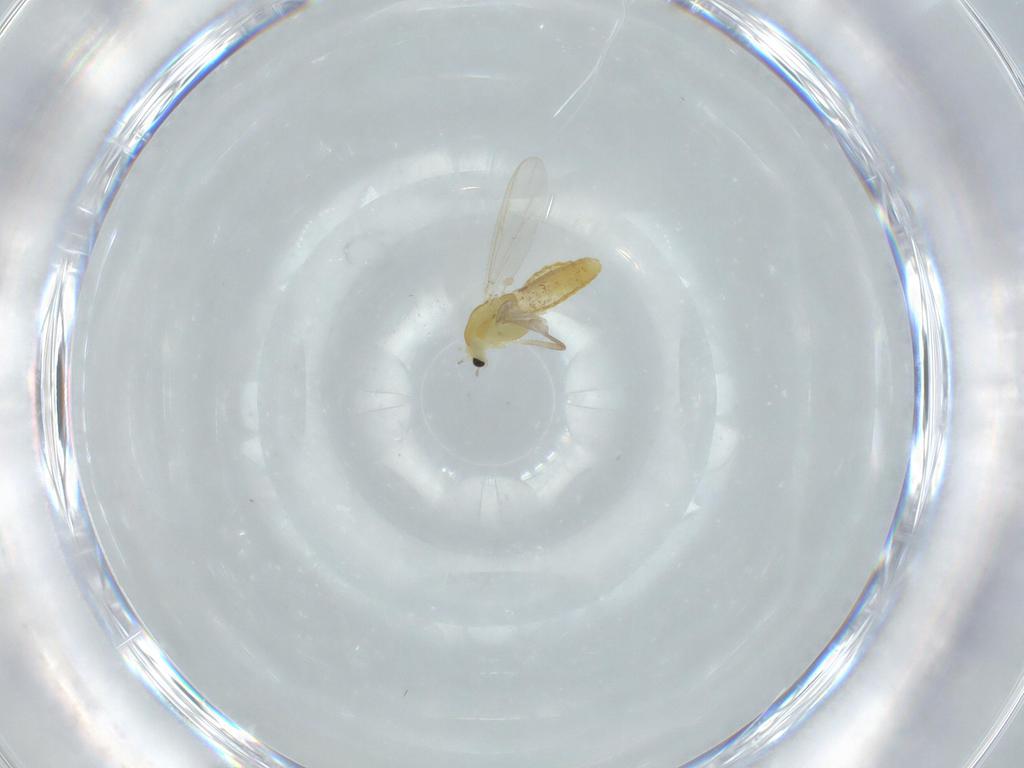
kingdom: Animalia
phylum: Arthropoda
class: Insecta
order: Diptera
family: Chironomidae
